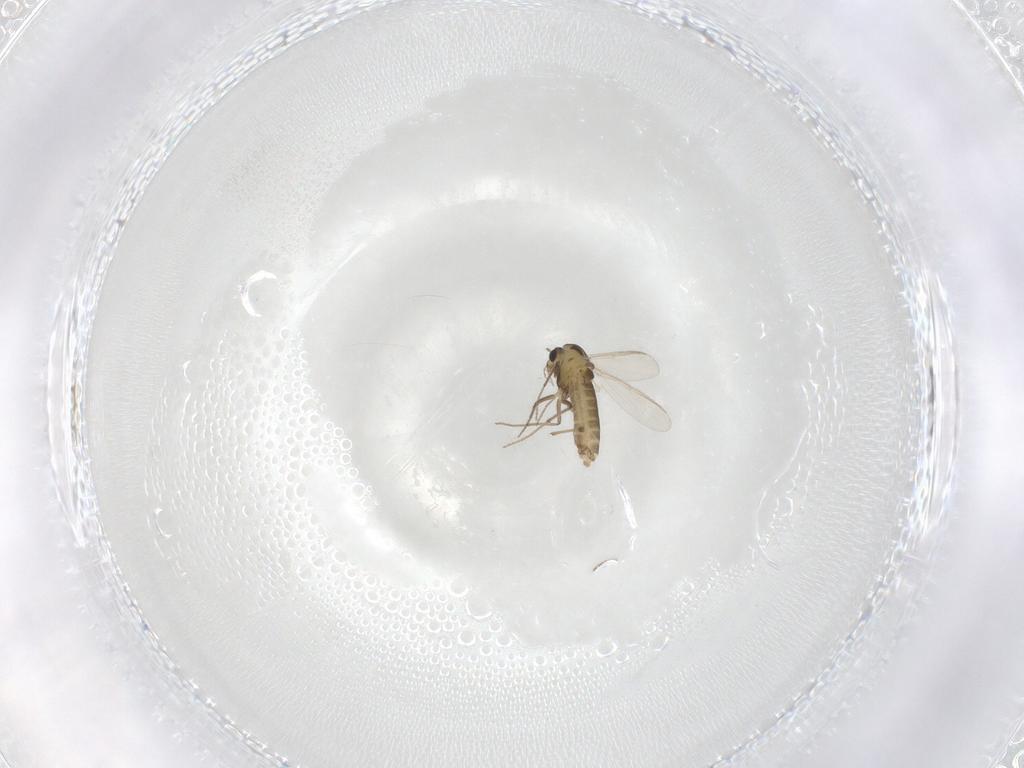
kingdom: Animalia
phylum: Arthropoda
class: Insecta
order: Diptera
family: Chironomidae
